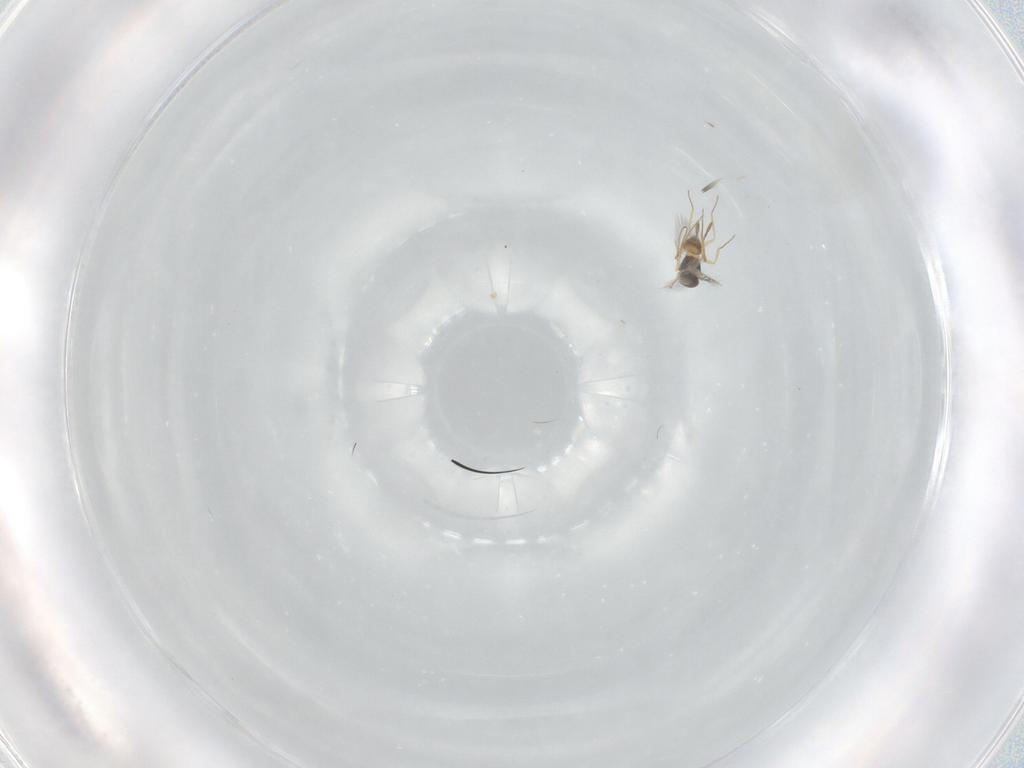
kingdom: Animalia
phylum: Arthropoda
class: Insecta
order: Hymenoptera
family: Mymaridae
